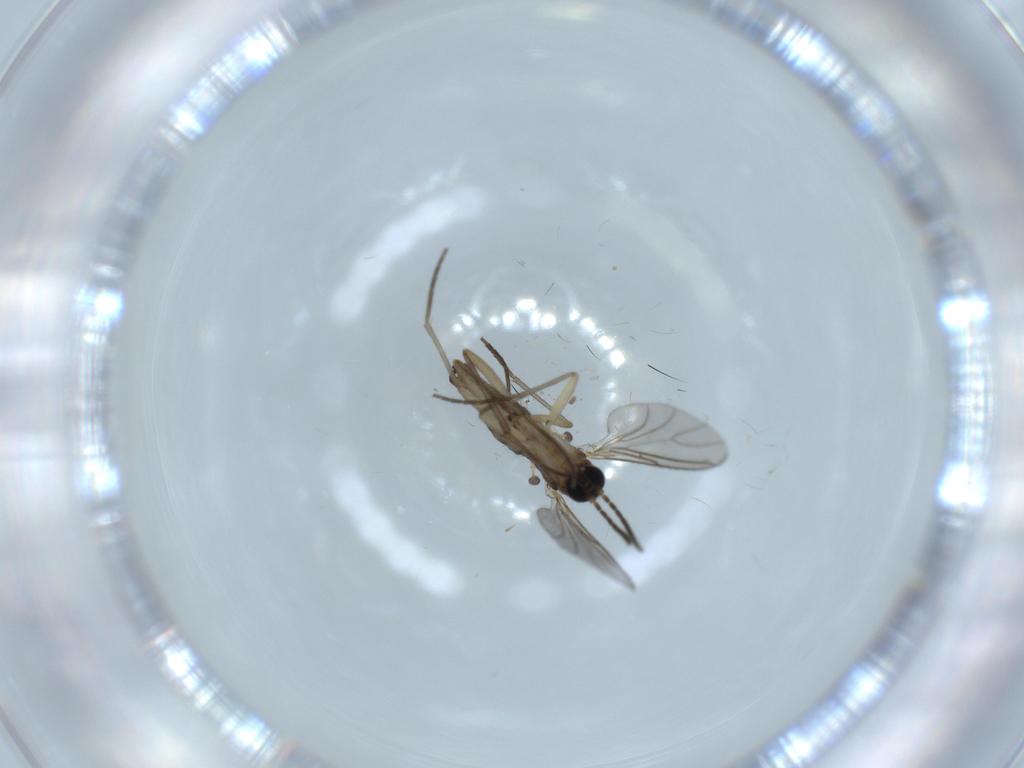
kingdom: Animalia
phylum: Arthropoda
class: Insecta
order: Diptera
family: Sciaridae
